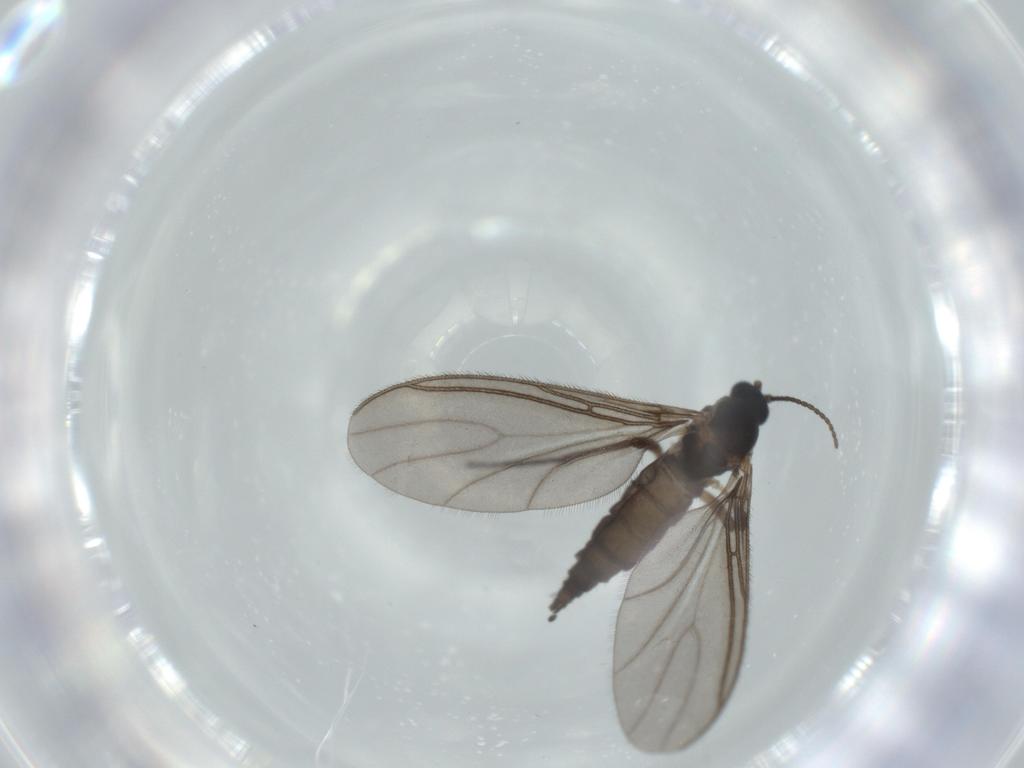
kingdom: Animalia
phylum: Arthropoda
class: Insecta
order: Diptera
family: Sciaridae
